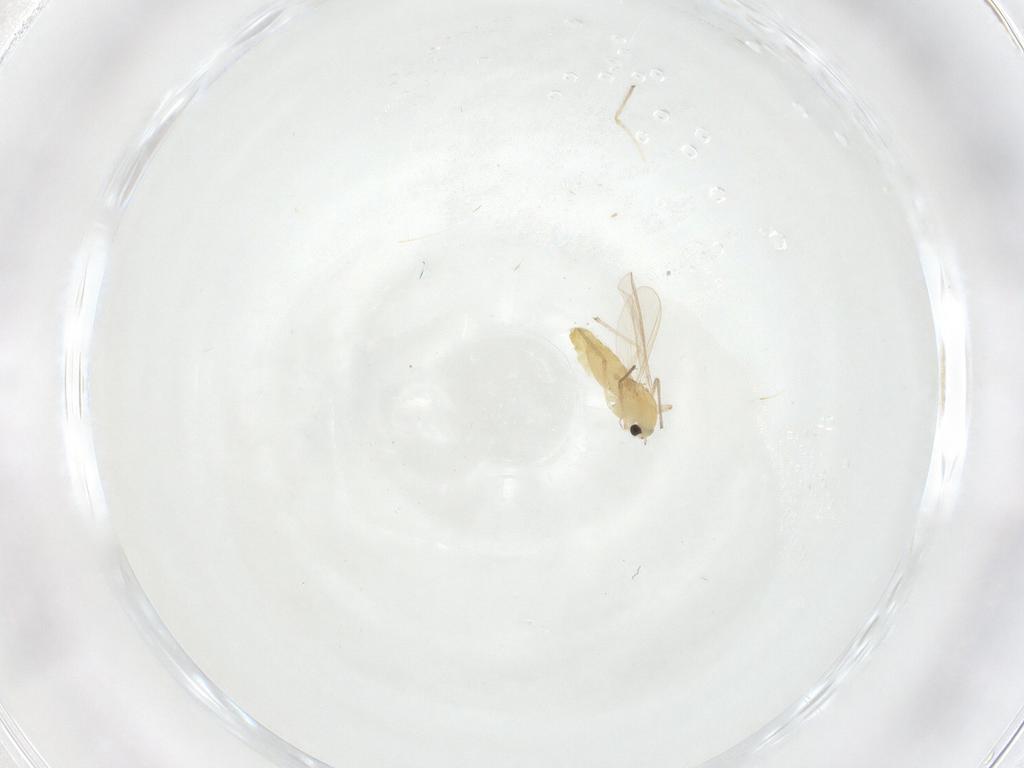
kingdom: Animalia
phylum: Arthropoda
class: Insecta
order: Diptera
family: Chironomidae
